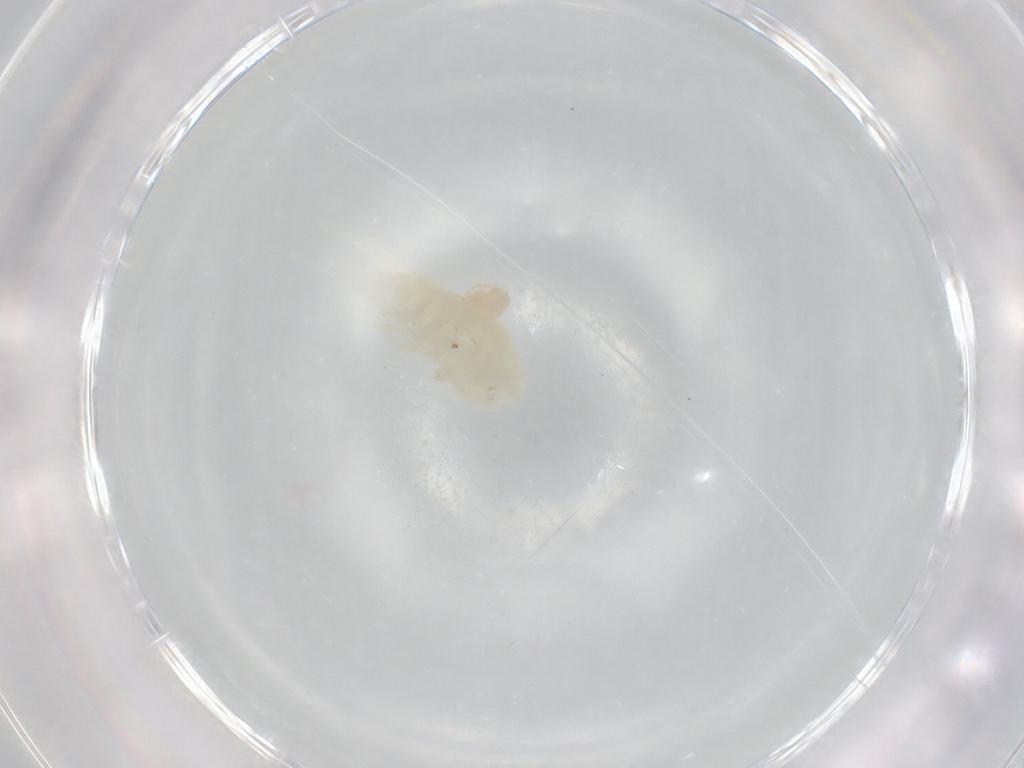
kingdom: Animalia
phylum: Arthropoda
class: Copepoda
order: Calanoida
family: Diaptomidae
